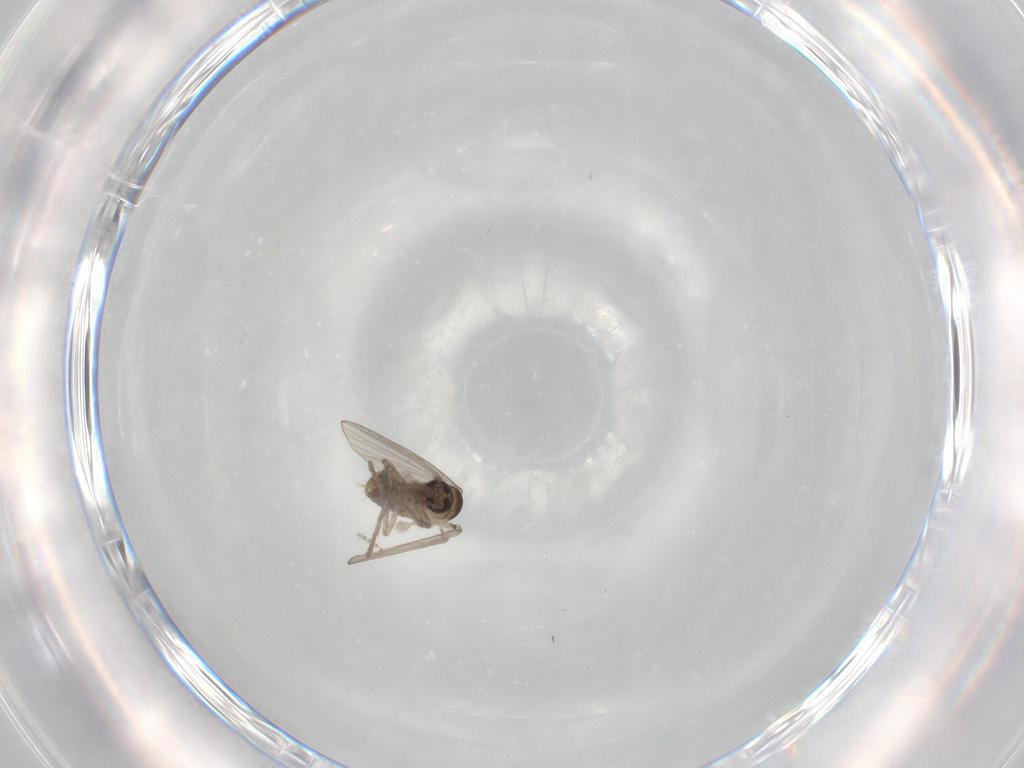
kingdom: Animalia
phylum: Arthropoda
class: Insecta
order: Diptera
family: Psychodidae
